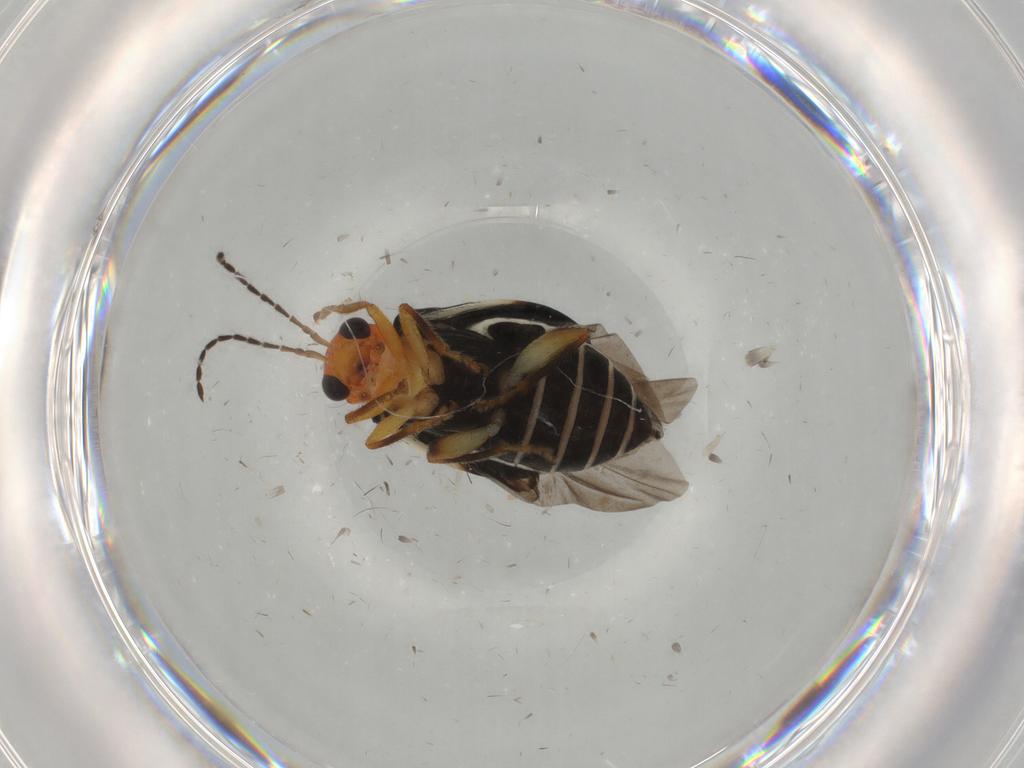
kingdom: Animalia
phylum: Arthropoda
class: Insecta
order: Coleoptera
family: Chrysomelidae
